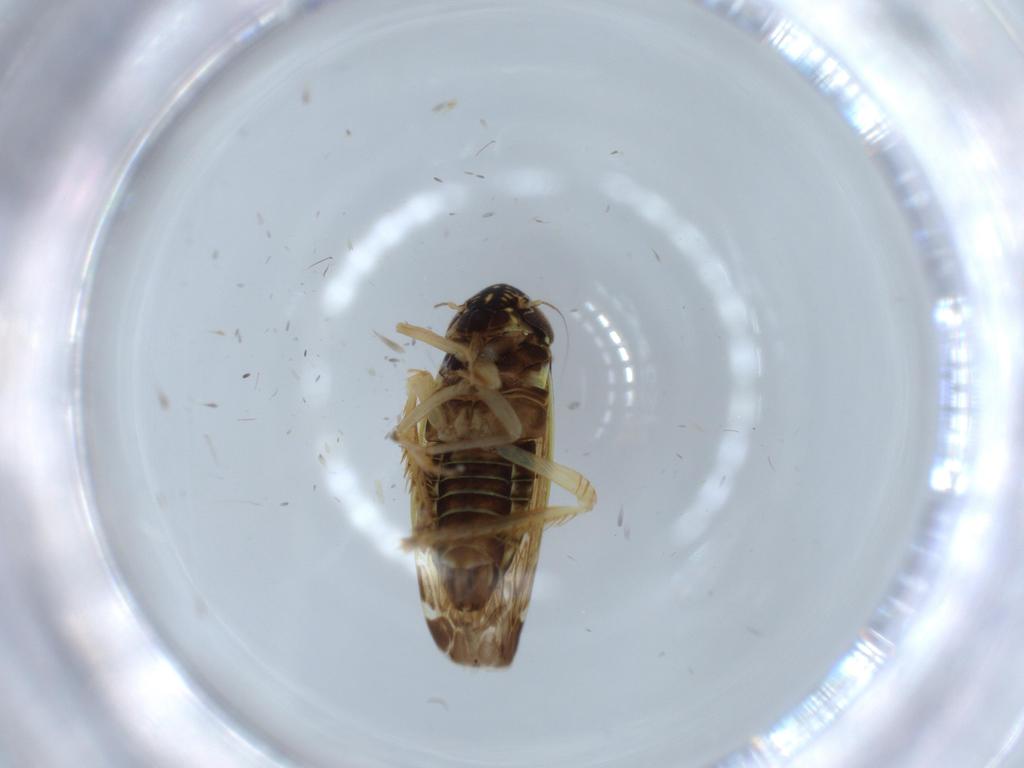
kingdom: Animalia
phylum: Arthropoda
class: Insecta
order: Hemiptera
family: Cicadellidae
